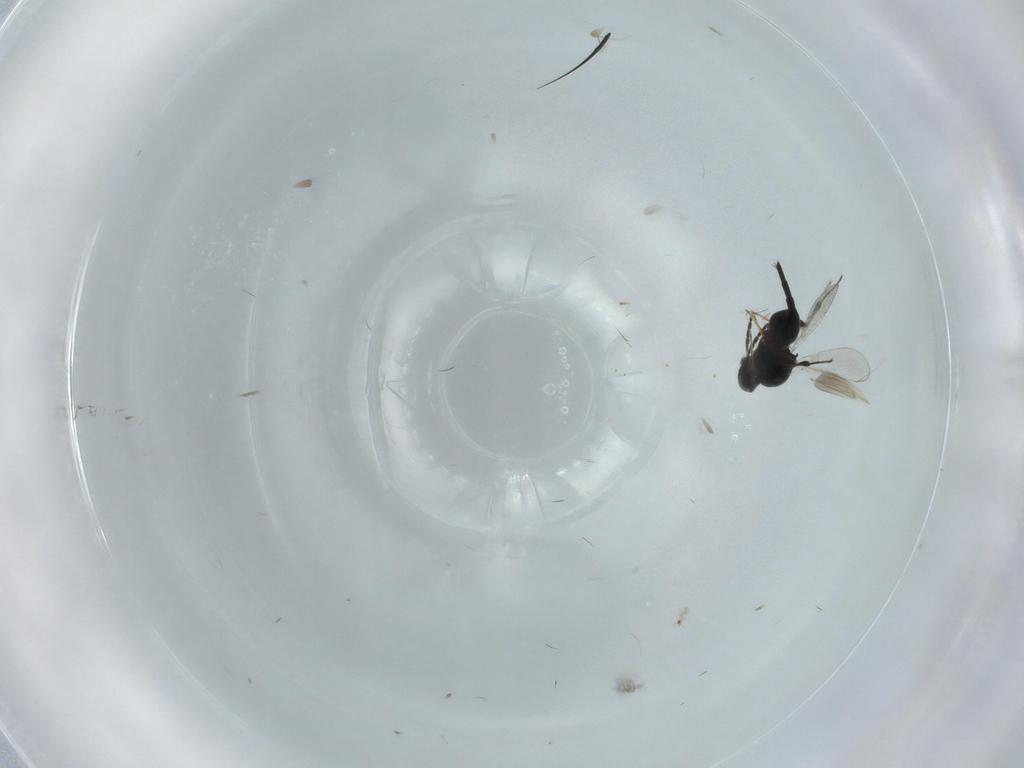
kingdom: Animalia
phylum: Arthropoda
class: Insecta
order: Hymenoptera
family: Platygastridae
